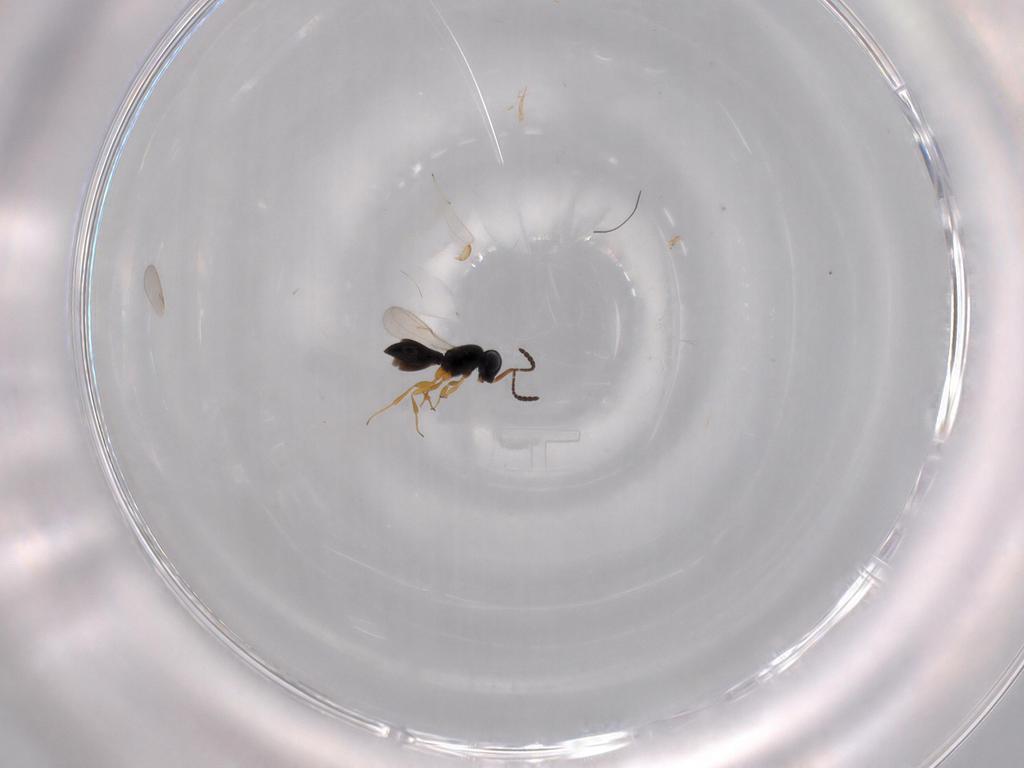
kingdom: Animalia
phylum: Arthropoda
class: Insecta
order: Hymenoptera
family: Scelionidae
